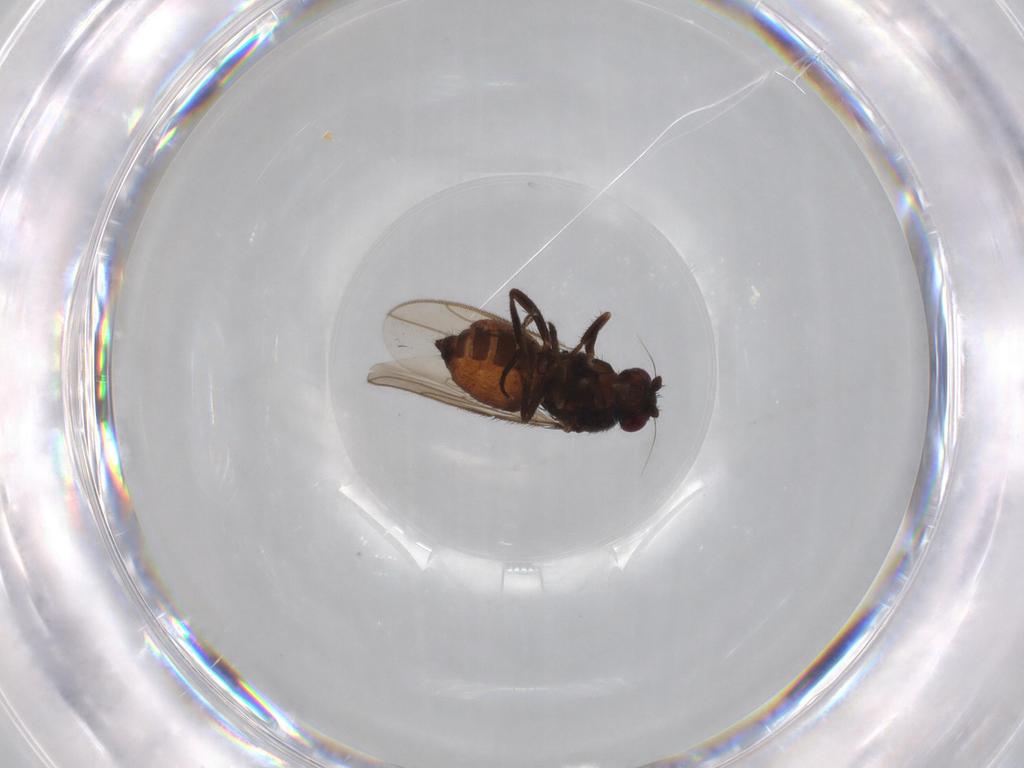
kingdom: Animalia
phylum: Arthropoda
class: Insecta
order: Diptera
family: Sphaeroceridae
